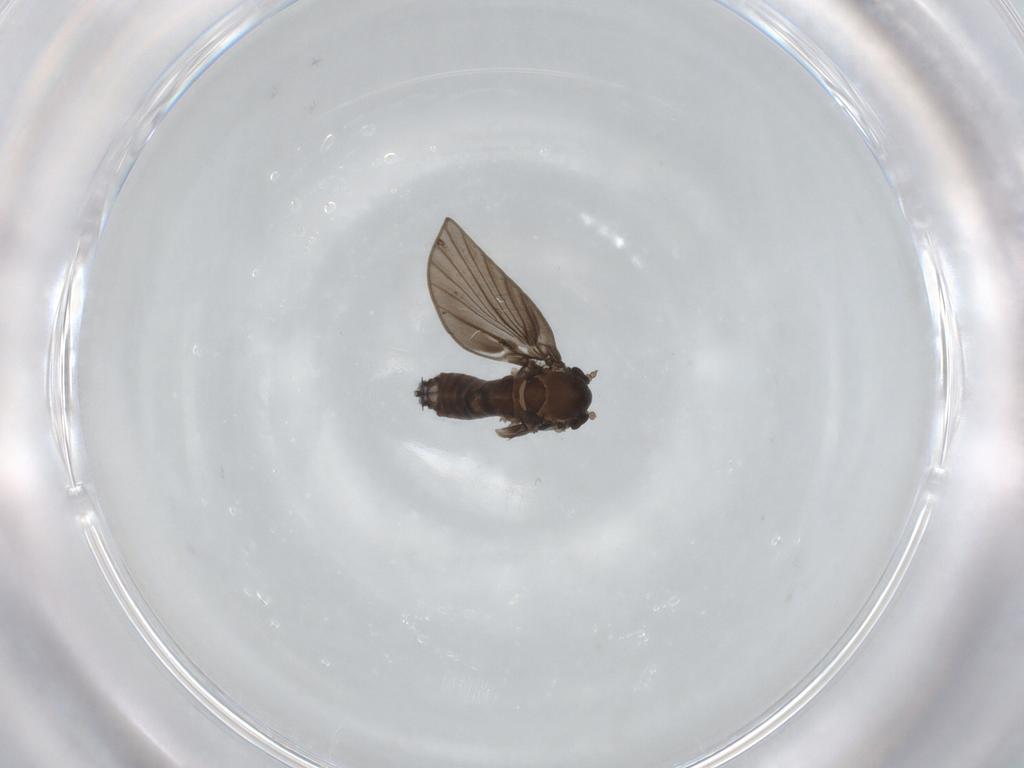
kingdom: Animalia
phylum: Arthropoda
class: Insecta
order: Diptera
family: Psychodidae
